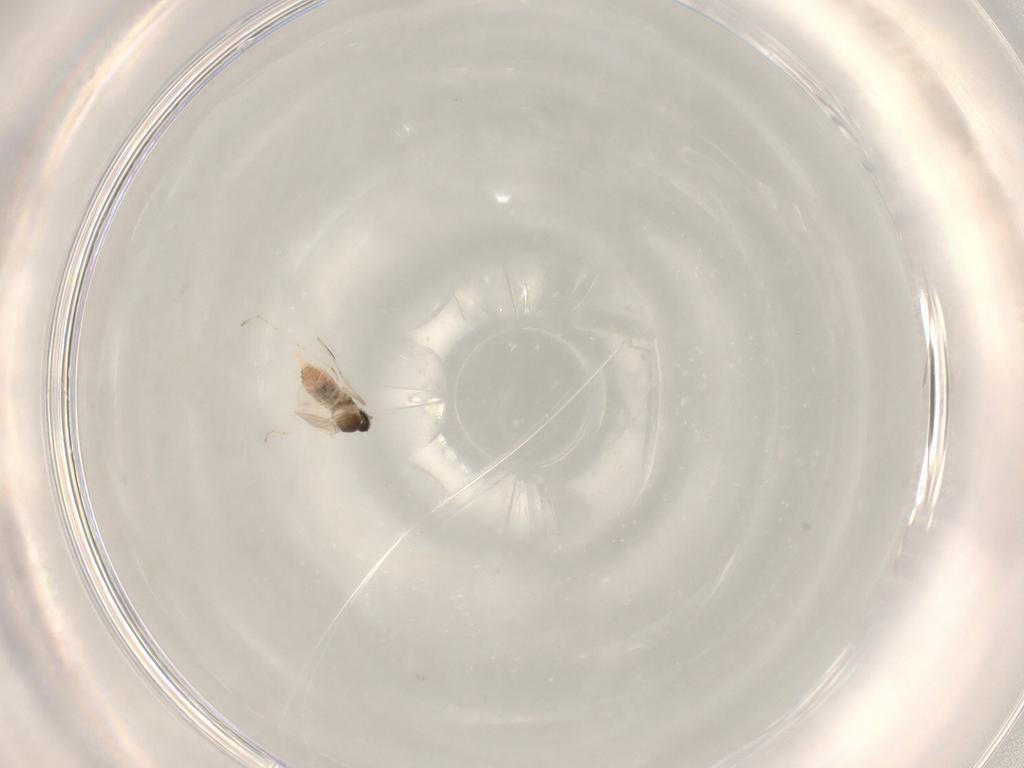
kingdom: Animalia
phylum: Arthropoda
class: Insecta
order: Diptera
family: Cecidomyiidae
